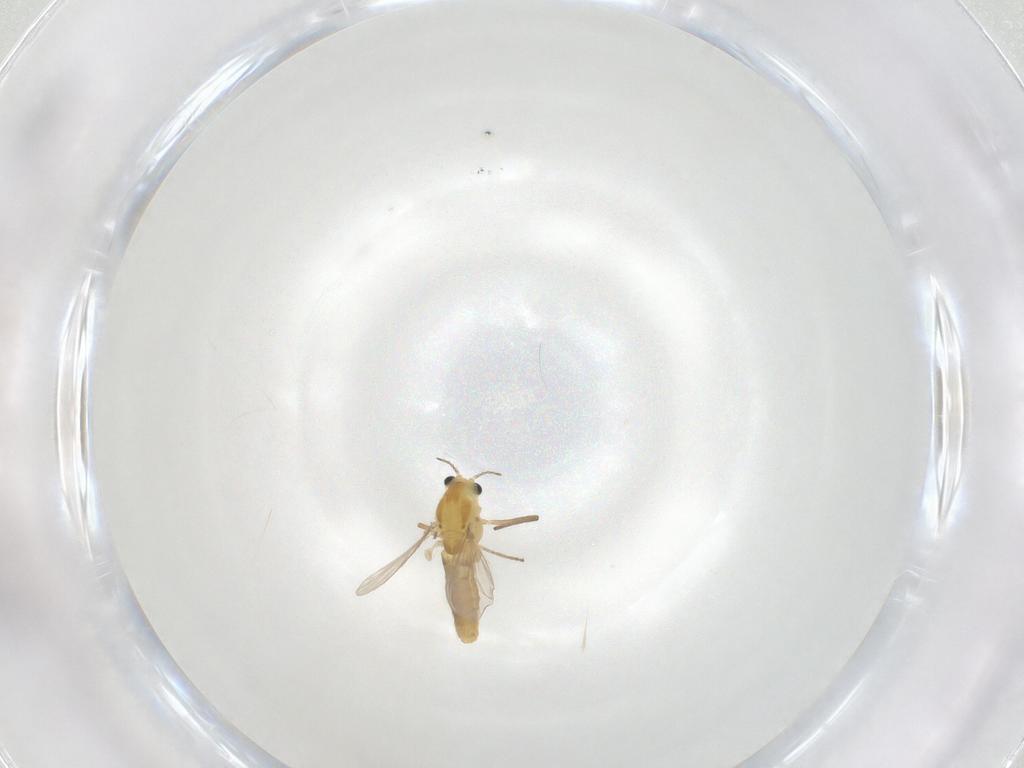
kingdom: Animalia
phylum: Arthropoda
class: Insecta
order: Diptera
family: Chironomidae
